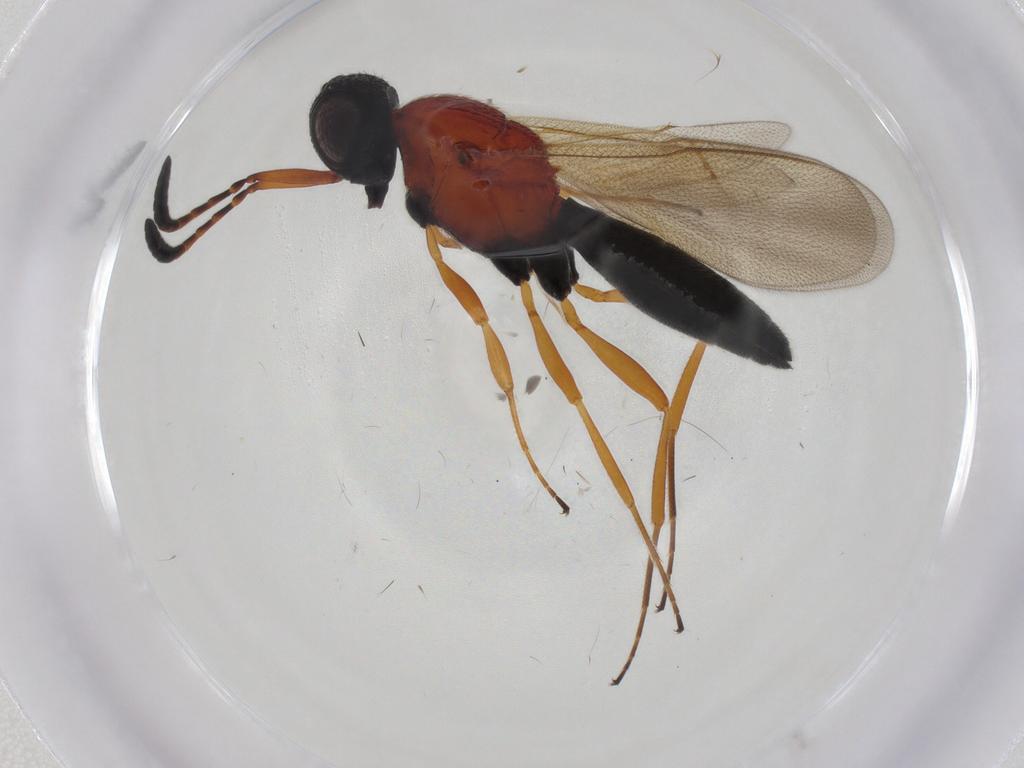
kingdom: Animalia
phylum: Arthropoda
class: Insecta
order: Hymenoptera
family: Scelionidae
